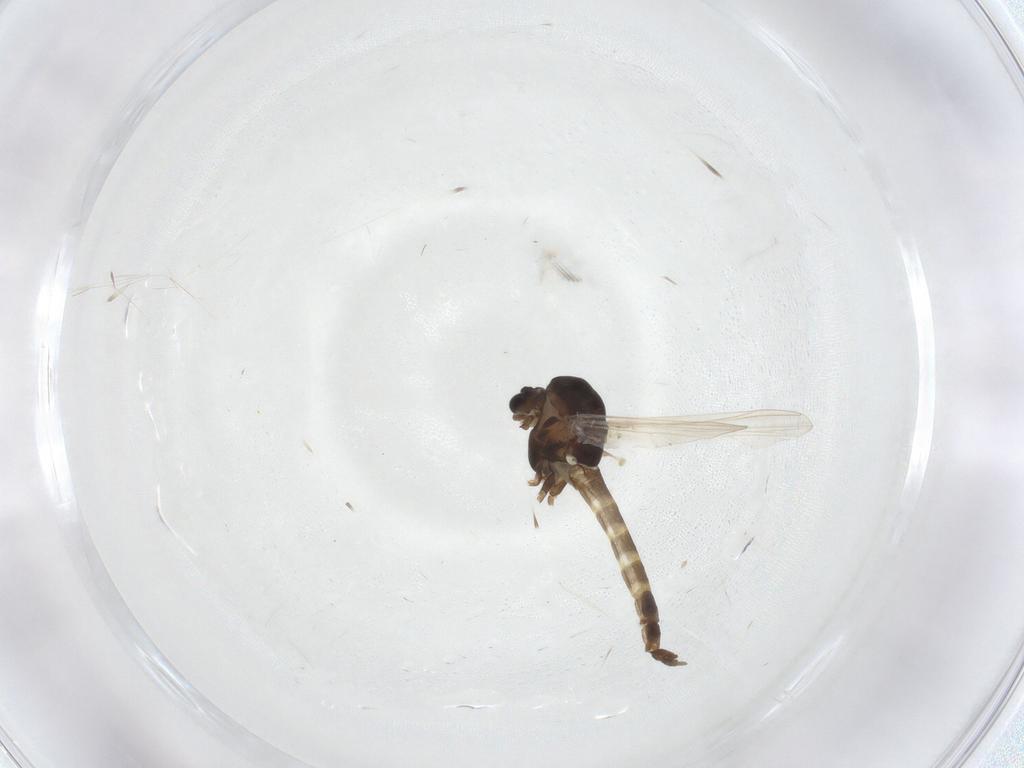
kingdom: Animalia
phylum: Arthropoda
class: Insecta
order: Diptera
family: Chironomidae
